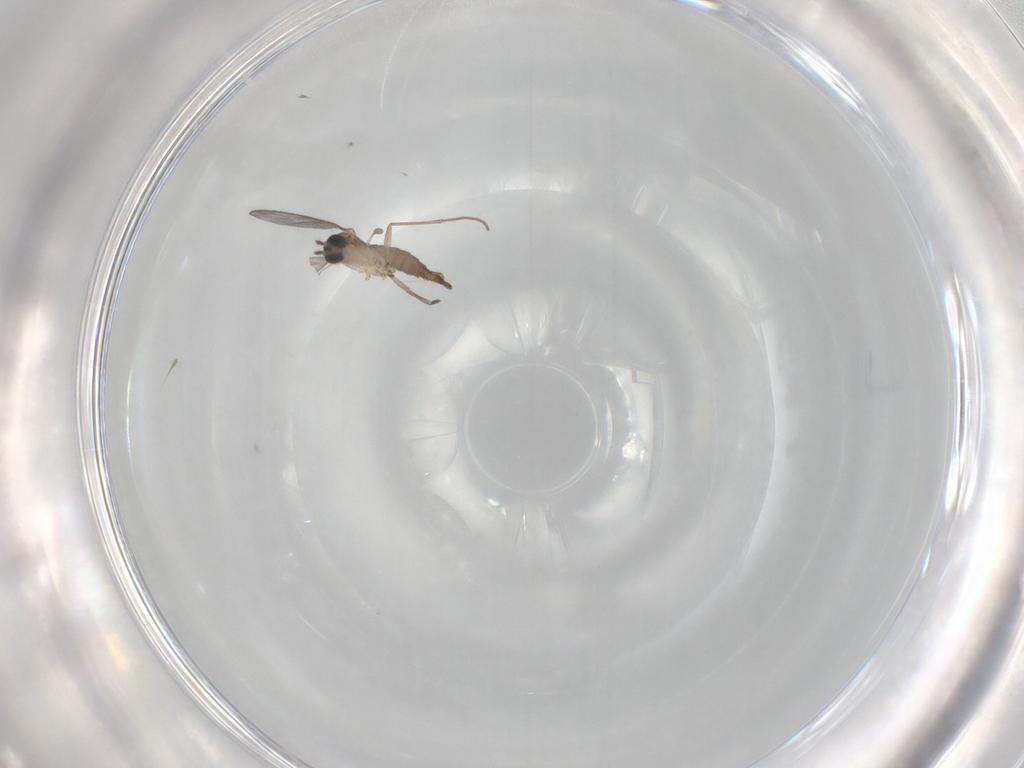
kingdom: Animalia
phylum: Arthropoda
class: Insecta
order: Diptera
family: Sciaridae
